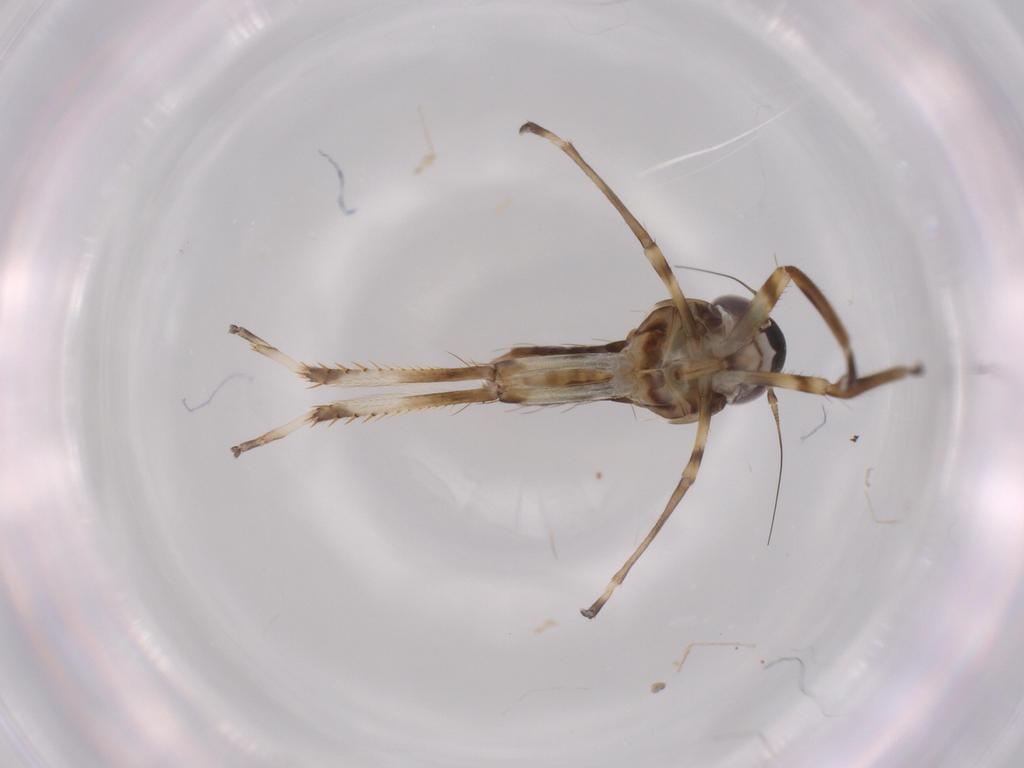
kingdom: Animalia
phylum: Arthropoda
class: Insecta
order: Hemiptera
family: Cicadellidae
